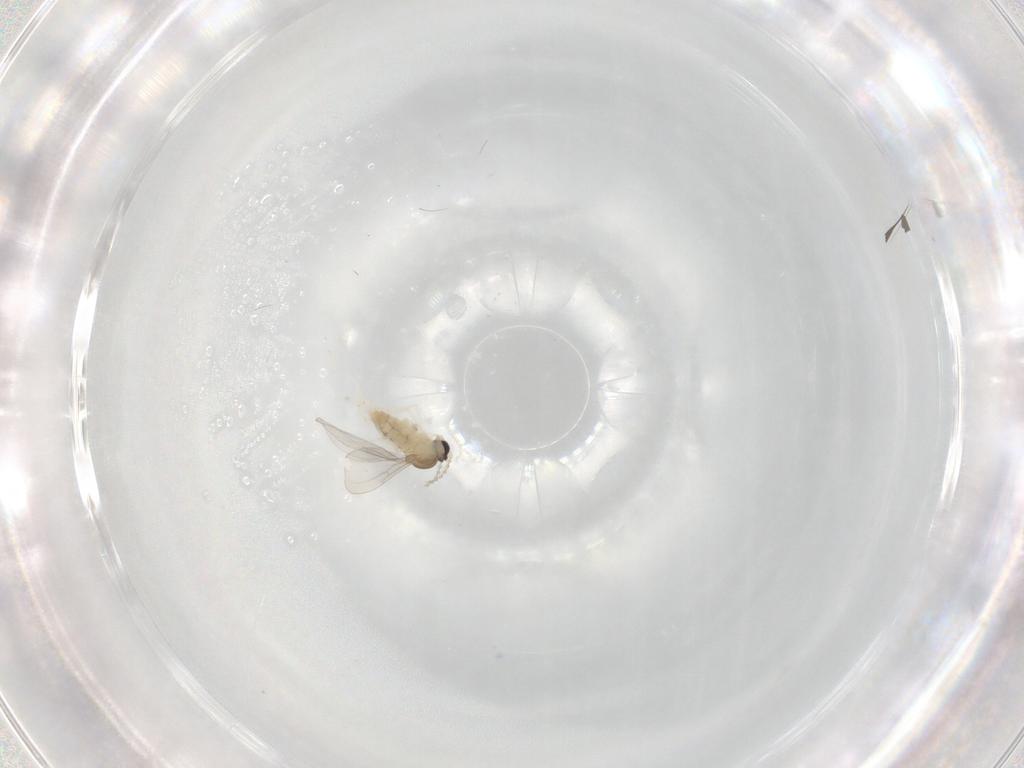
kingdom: Animalia
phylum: Arthropoda
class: Insecta
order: Diptera
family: Cecidomyiidae
